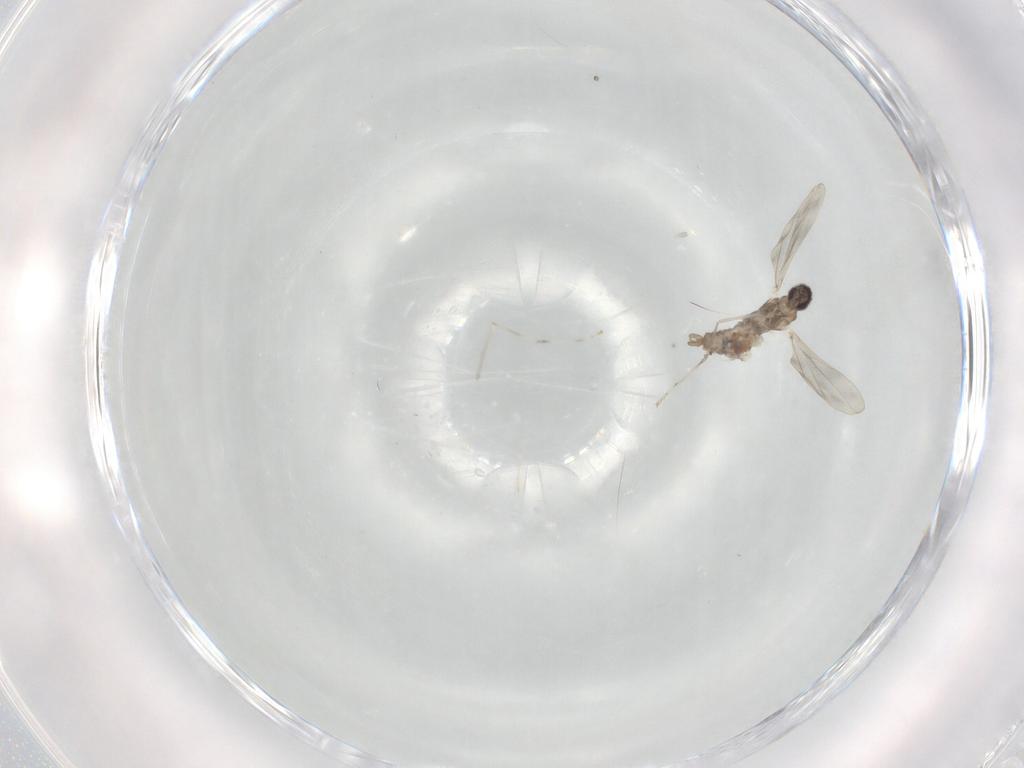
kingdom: Animalia
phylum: Arthropoda
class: Insecta
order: Diptera
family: Cecidomyiidae
